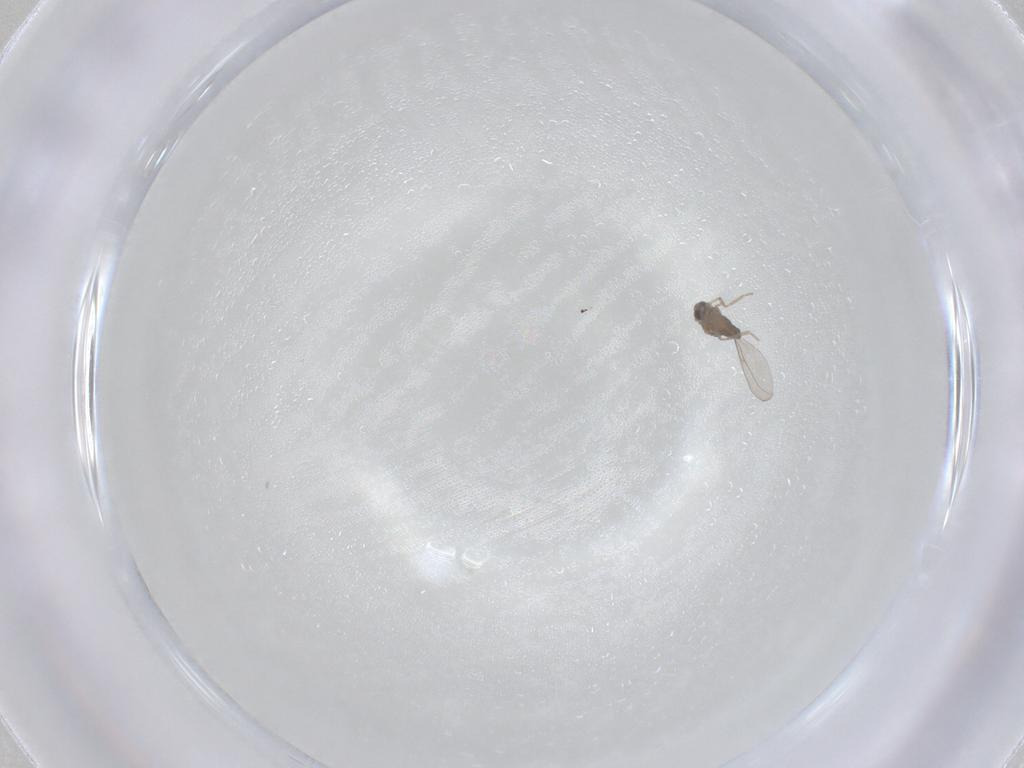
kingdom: Animalia
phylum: Arthropoda
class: Insecta
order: Diptera
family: Cecidomyiidae
